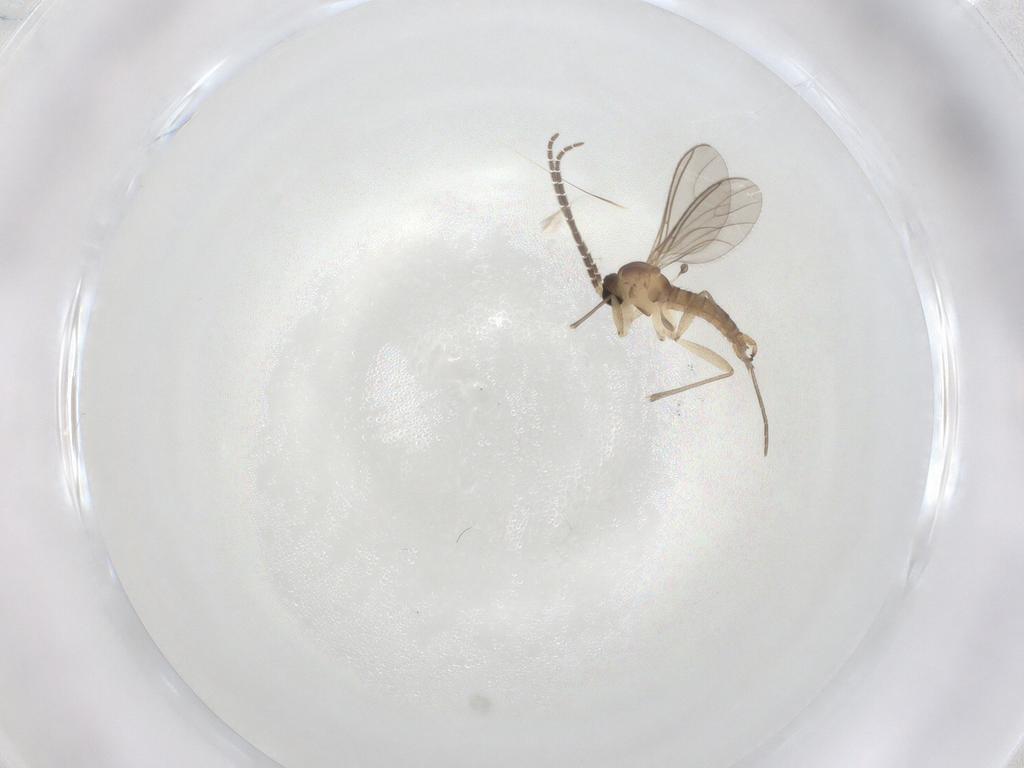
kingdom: Animalia
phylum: Arthropoda
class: Insecta
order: Diptera
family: Sciaridae
